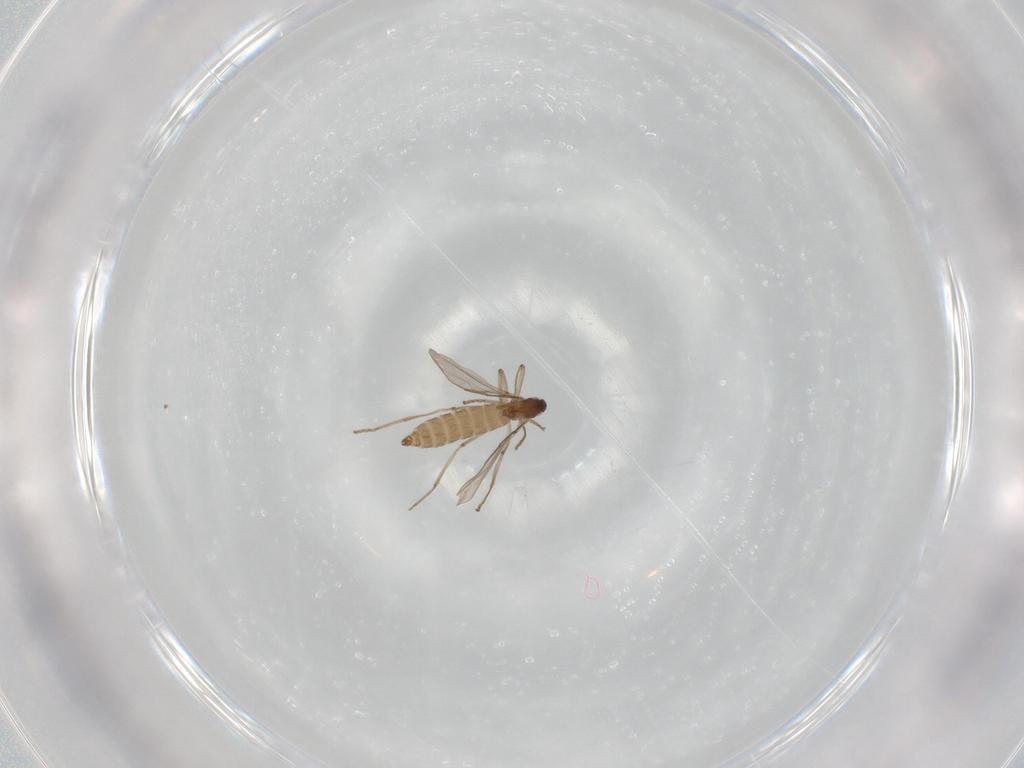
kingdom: Animalia
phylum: Arthropoda
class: Insecta
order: Diptera
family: Cecidomyiidae
